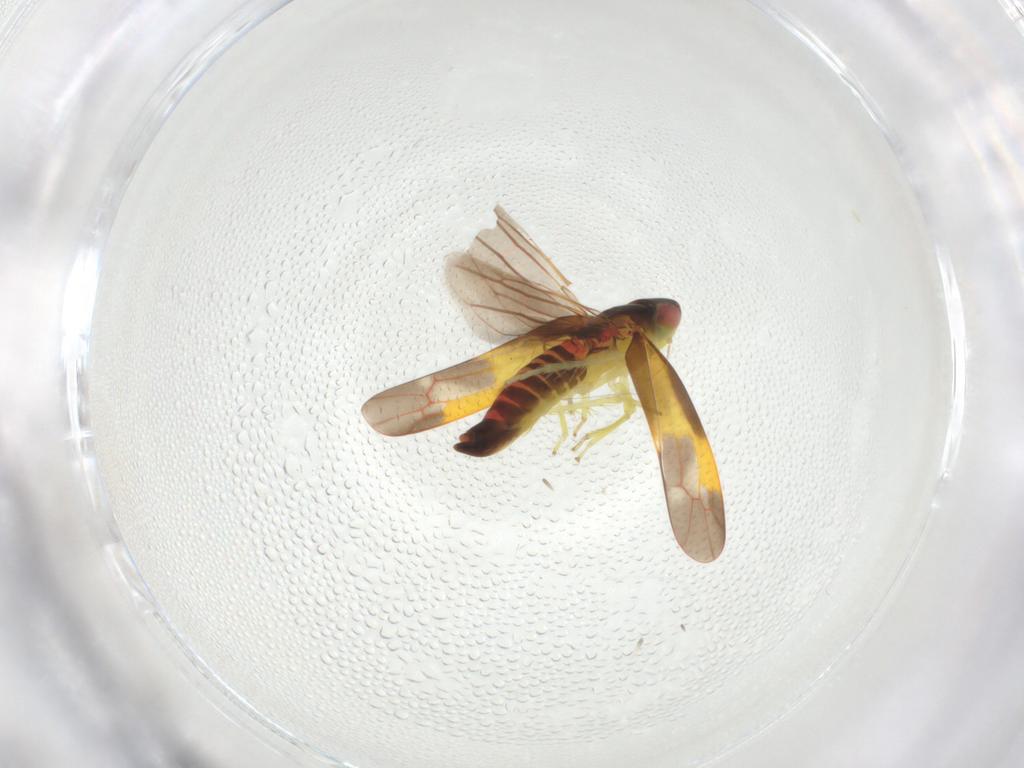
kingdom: Animalia
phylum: Arthropoda
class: Insecta
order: Hemiptera
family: Cicadellidae
